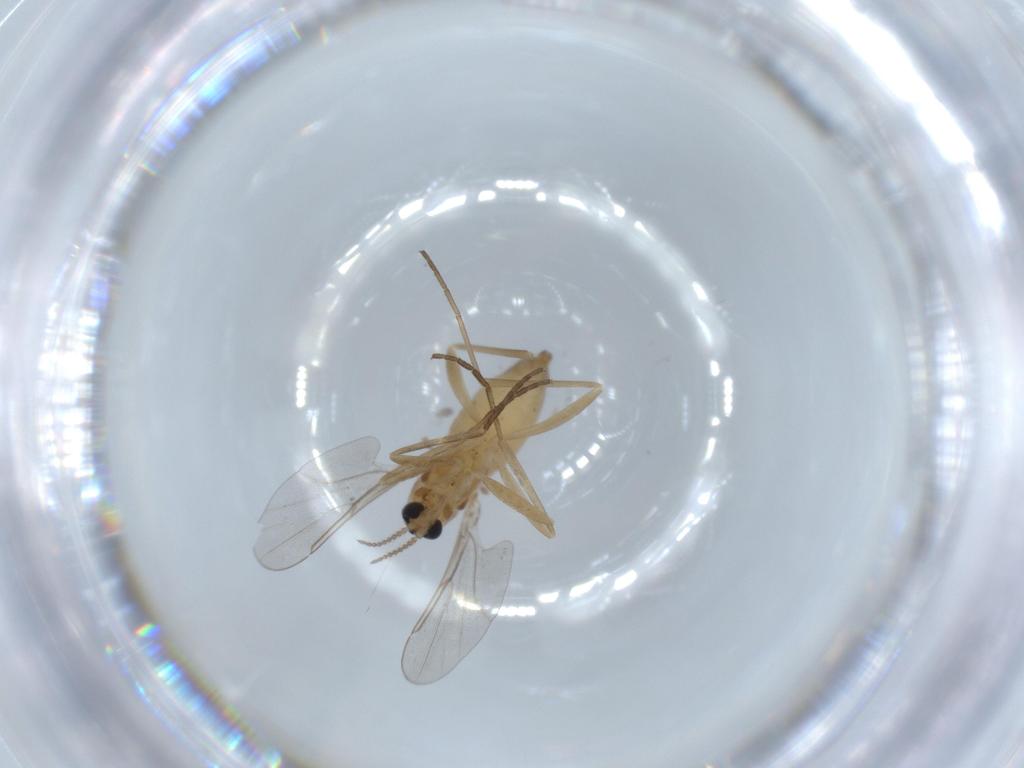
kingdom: Animalia
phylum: Arthropoda
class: Insecta
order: Diptera
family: Cecidomyiidae
